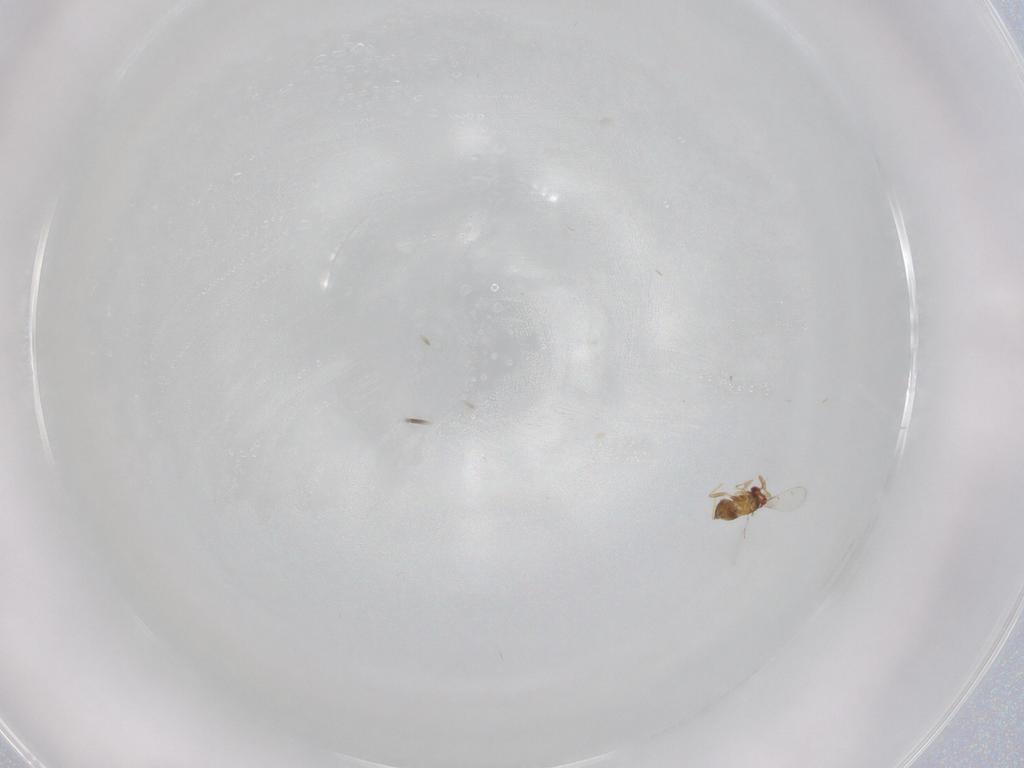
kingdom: Animalia
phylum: Arthropoda
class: Insecta
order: Hymenoptera
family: Trichogrammatidae
